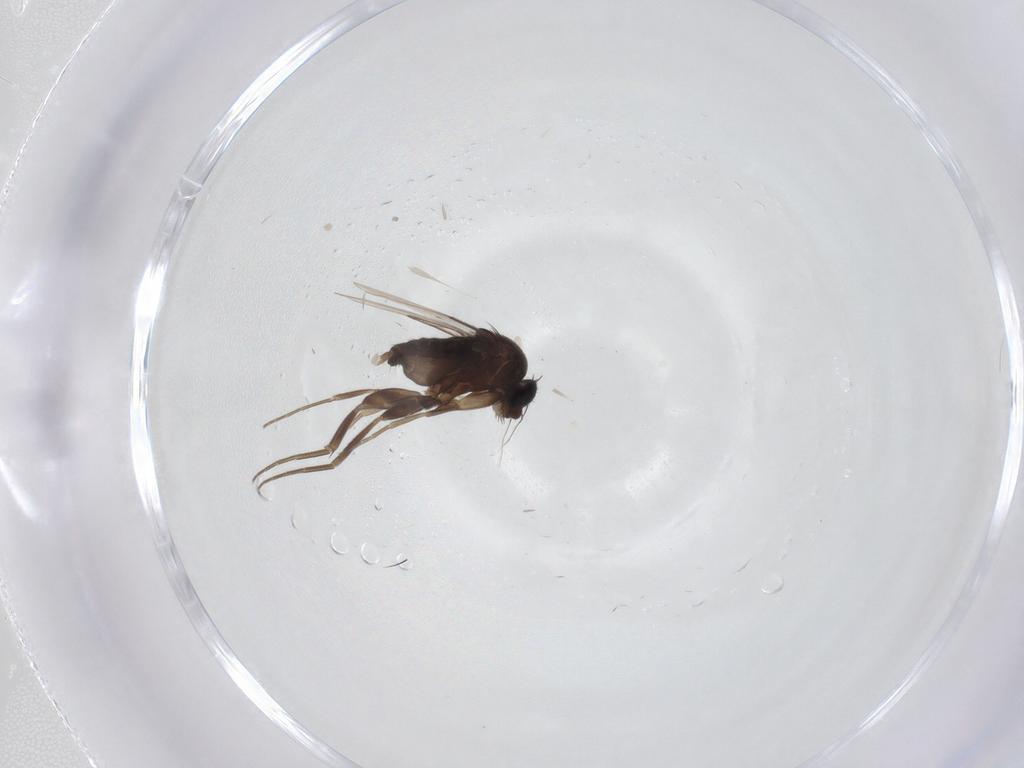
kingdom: Animalia
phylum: Arthropoda
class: Insecta
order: Diptera
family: Phoridae
